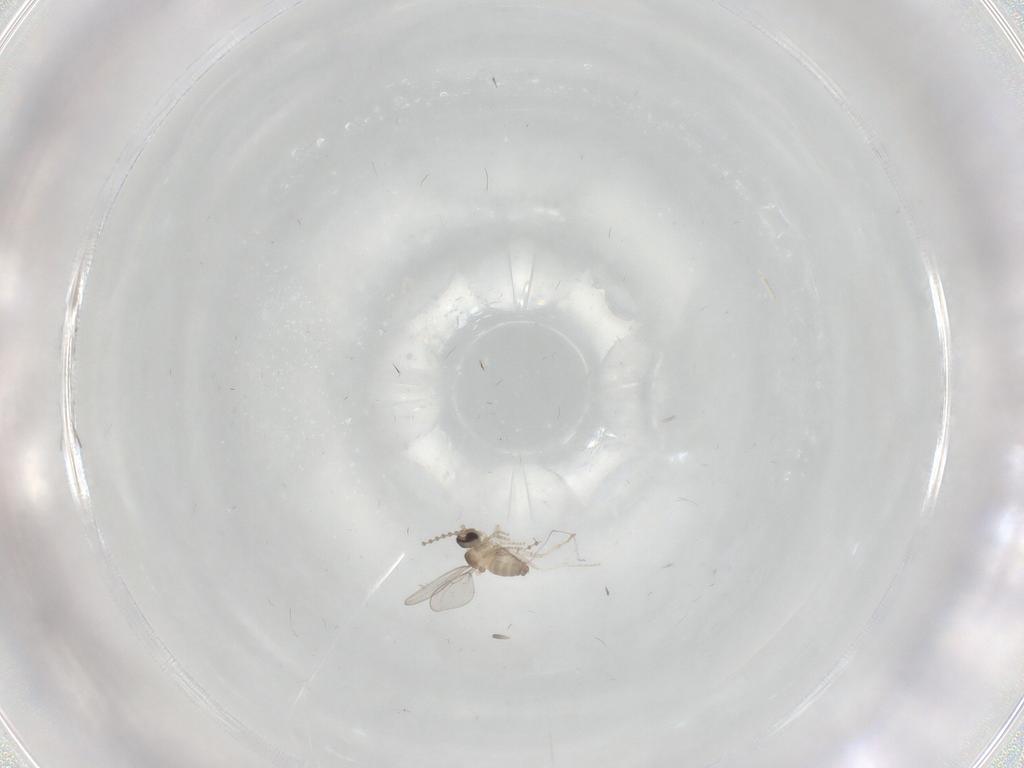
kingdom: Animalia
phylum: Arthropoda
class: Insecta
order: Diptera
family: Cecidomyiidae
